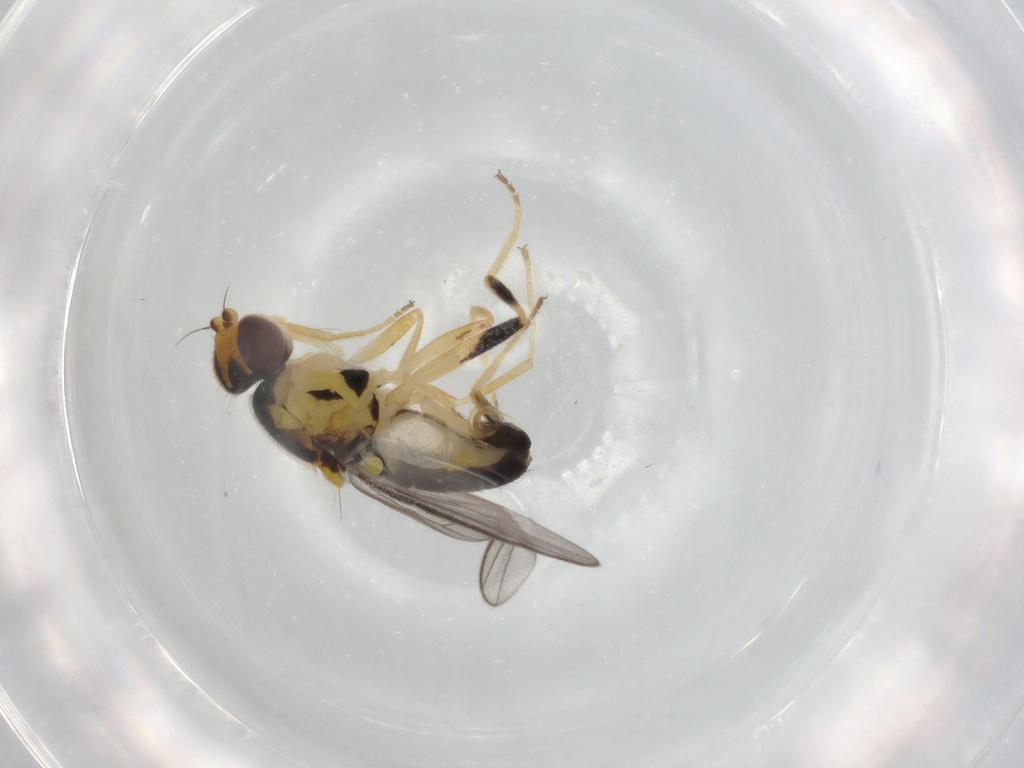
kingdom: Animalia
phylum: Arthropoda
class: Insecta
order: Diptera
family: Chloropidae
